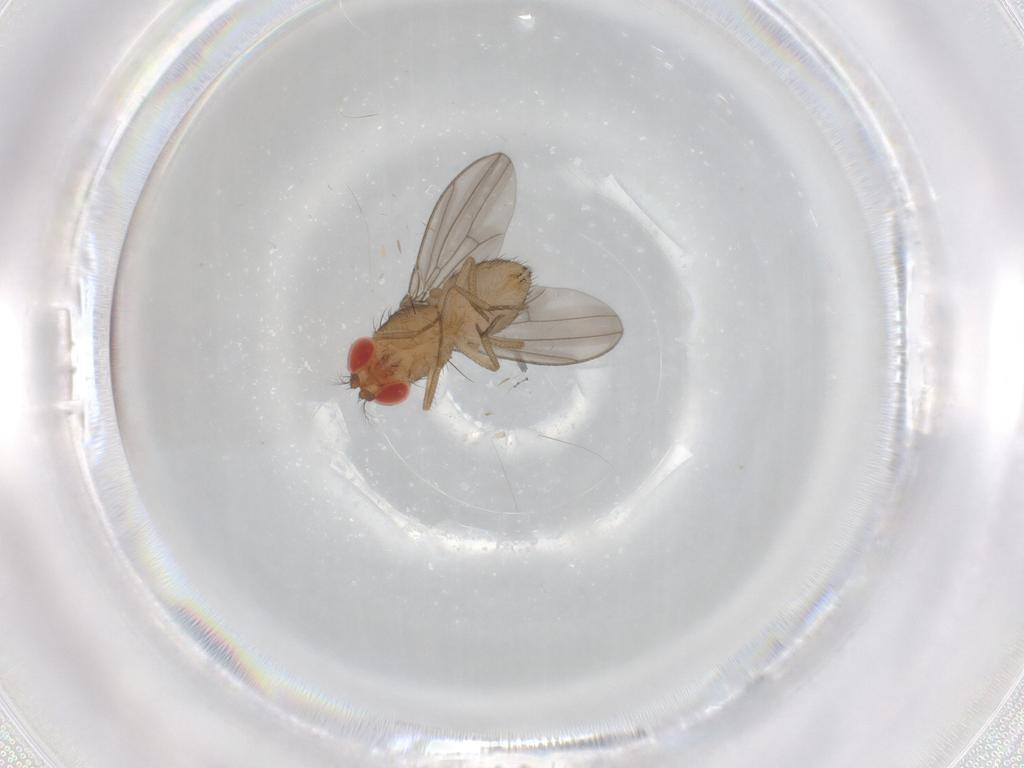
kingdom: Animalia
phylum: Arthropoda
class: Insecta
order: Diptera
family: Drosophilidae
